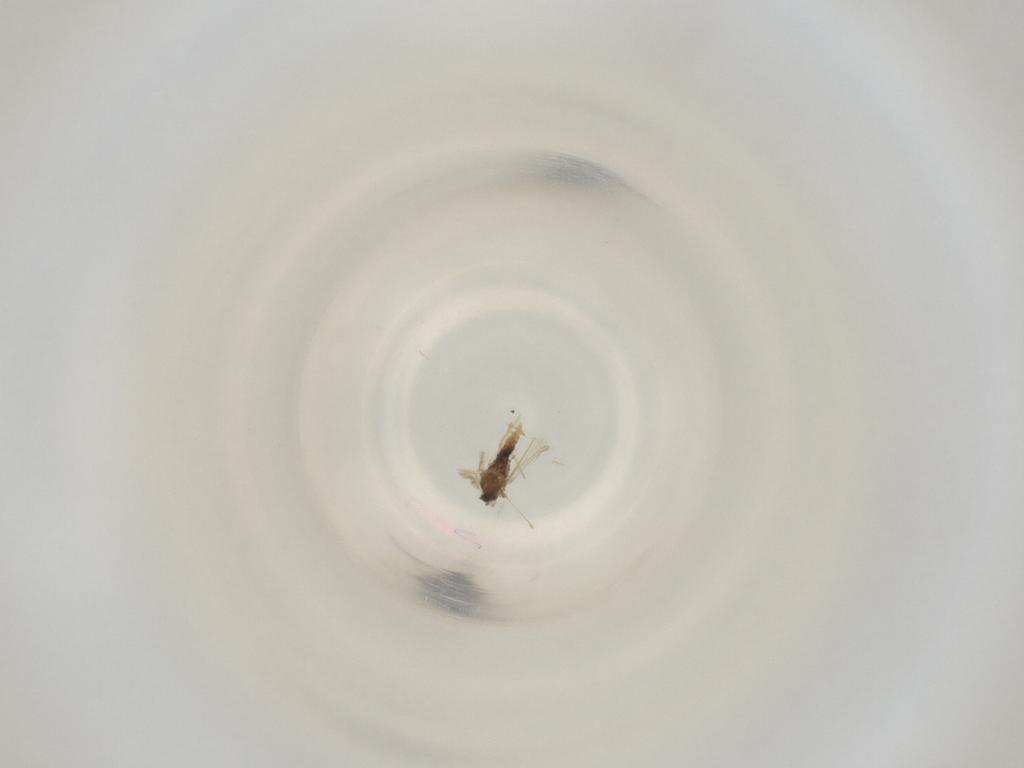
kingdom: Animalia
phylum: Arthropoda
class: Insecta
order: Diptera
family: Cecidomyiidae
